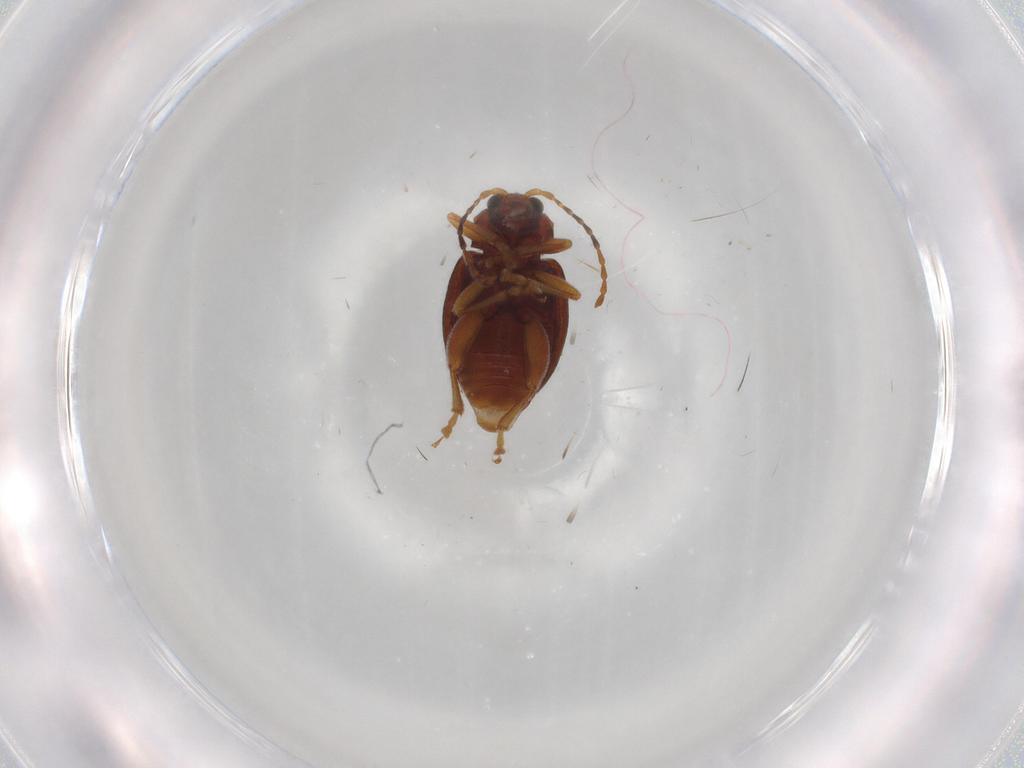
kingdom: Animalia
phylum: Arthropoda
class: Insecta
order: Coleoptera
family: Chrysomelidae
